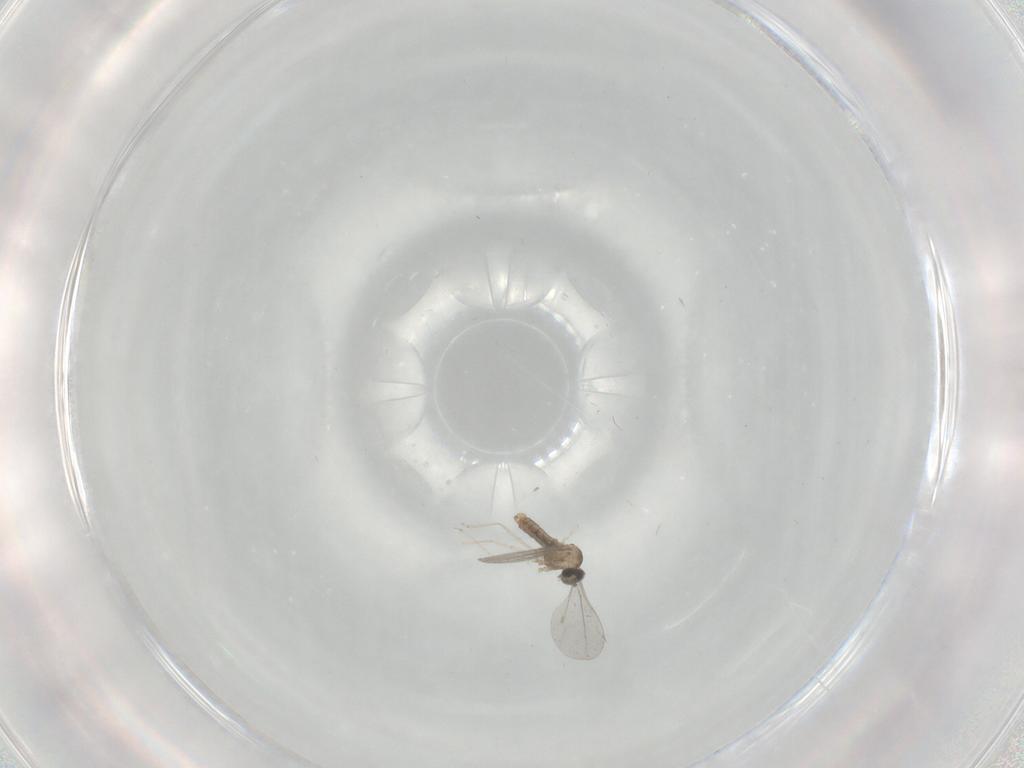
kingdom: Animalia
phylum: Arthropoda
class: Insecta
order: Diptera
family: Cecidomyiidae
